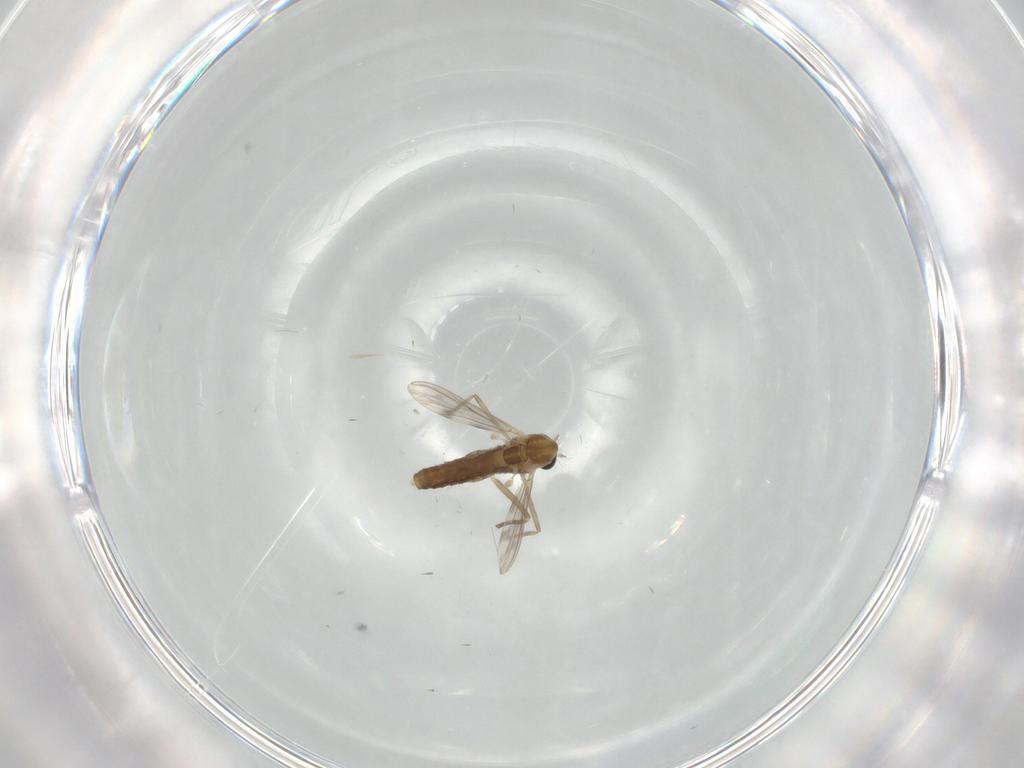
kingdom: Animalia
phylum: Arthropoda
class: Insecta
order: Diptera
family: Chironomidae
